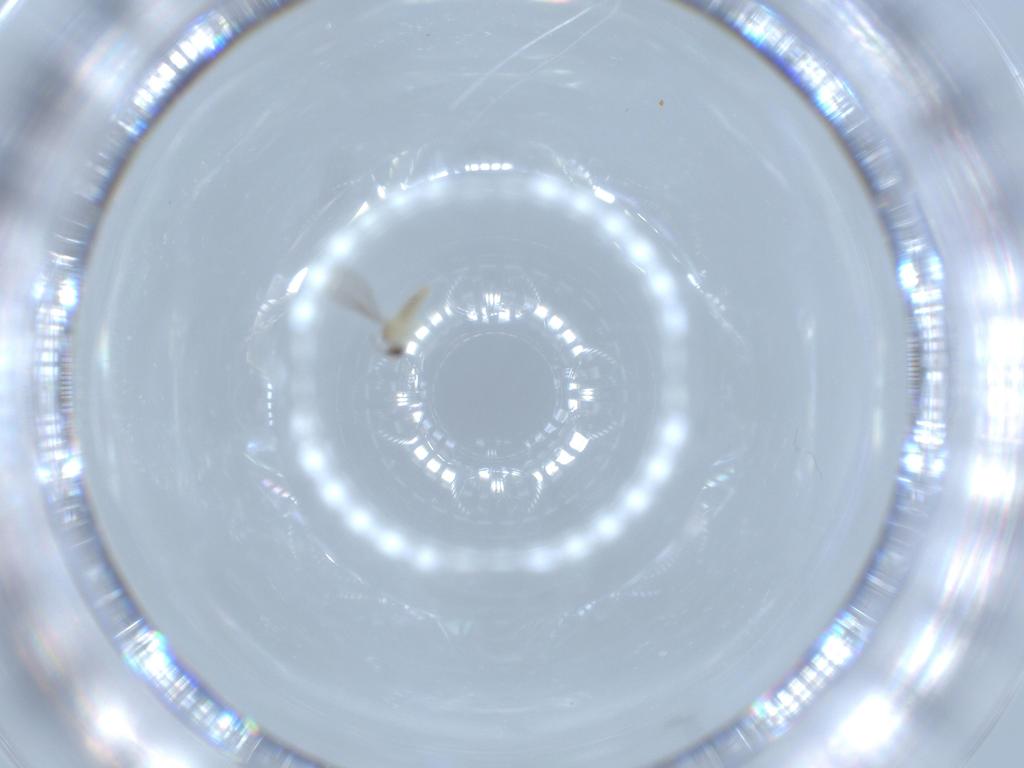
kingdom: Animalia
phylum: Arthropoda
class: Insecta
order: Diptera
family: Cecidomyiidae
